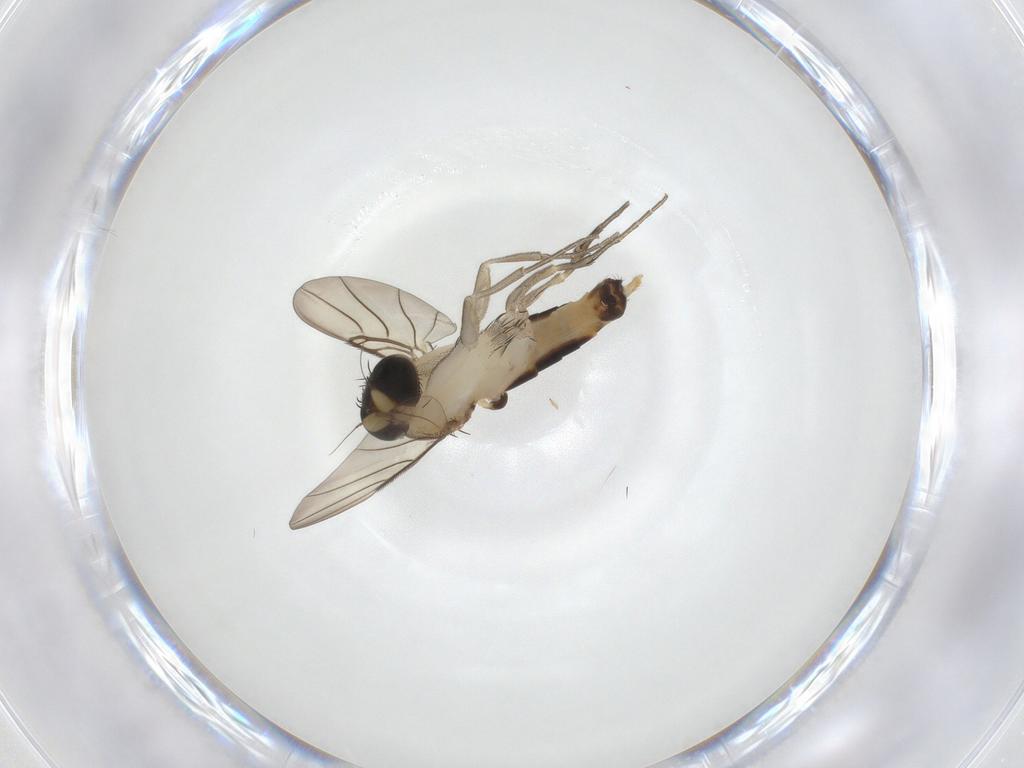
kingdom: Animalia
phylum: Arthropoda
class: Insecta
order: Diptera
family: Phoridae
